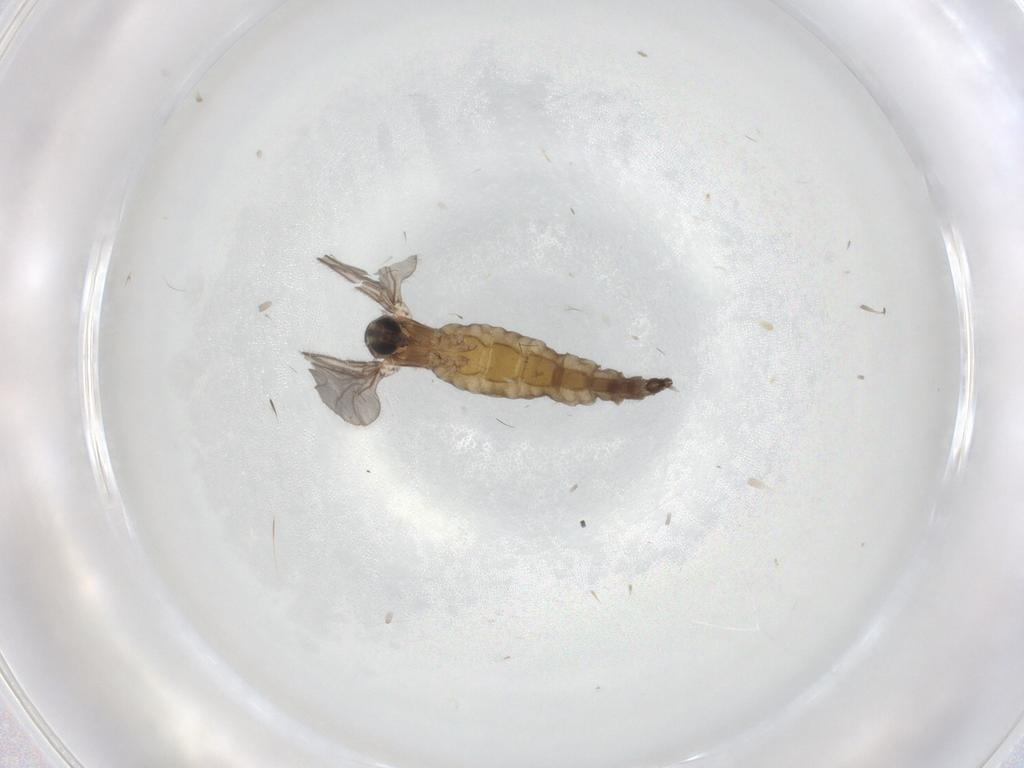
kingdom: Animalia
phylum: Arthropoda
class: Insecta
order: Diptera
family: Sciaridae
